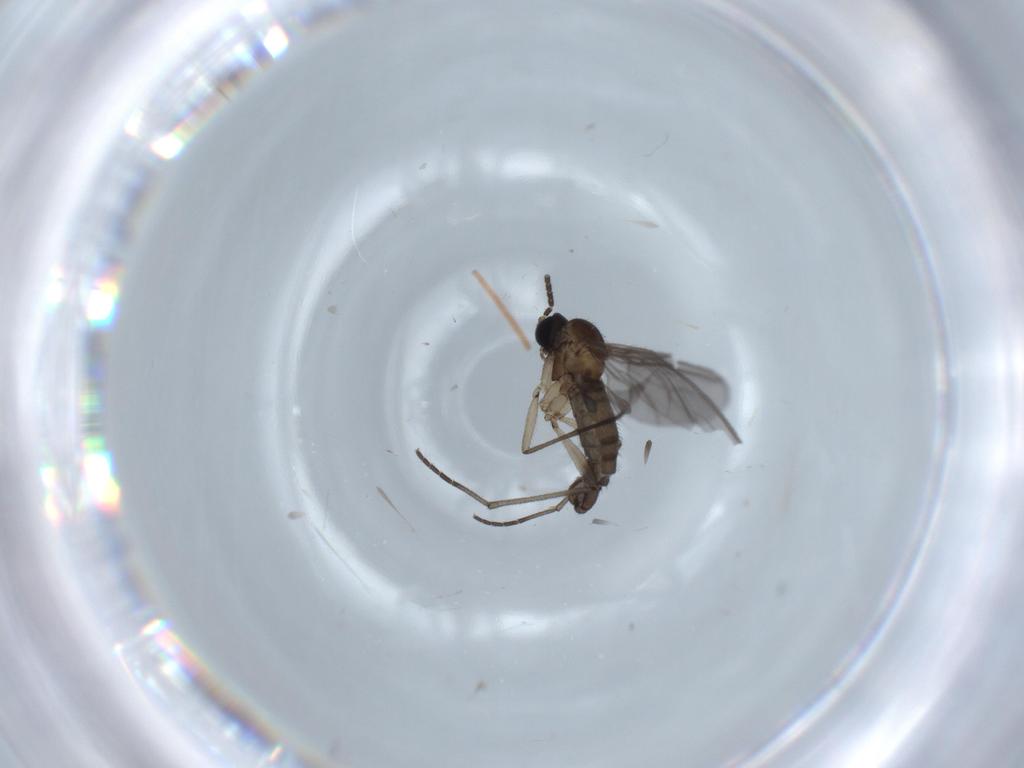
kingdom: Animalia
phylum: Arthropoda
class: Insecta
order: Diptera
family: Sciaridae
